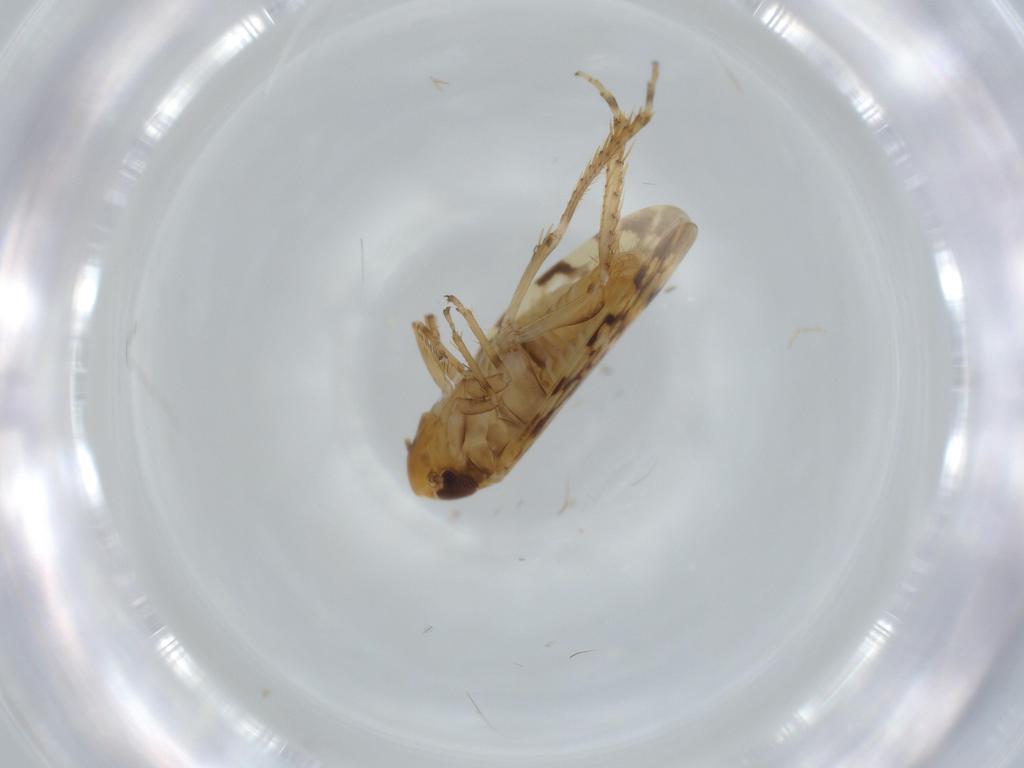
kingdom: Animalia
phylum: Arthropoda
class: Insecta
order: Hemiptera
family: Cicadellidae
